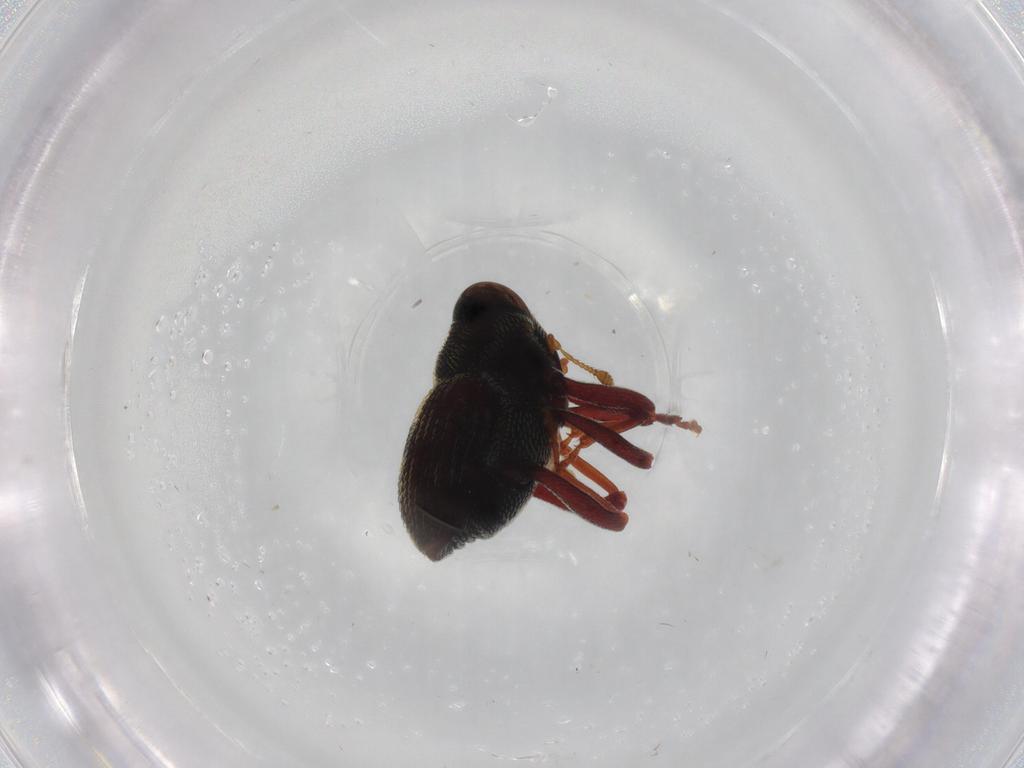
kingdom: Animalia
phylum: Arthropoda
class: Insecta
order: Coleoptera
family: Curculionidae
